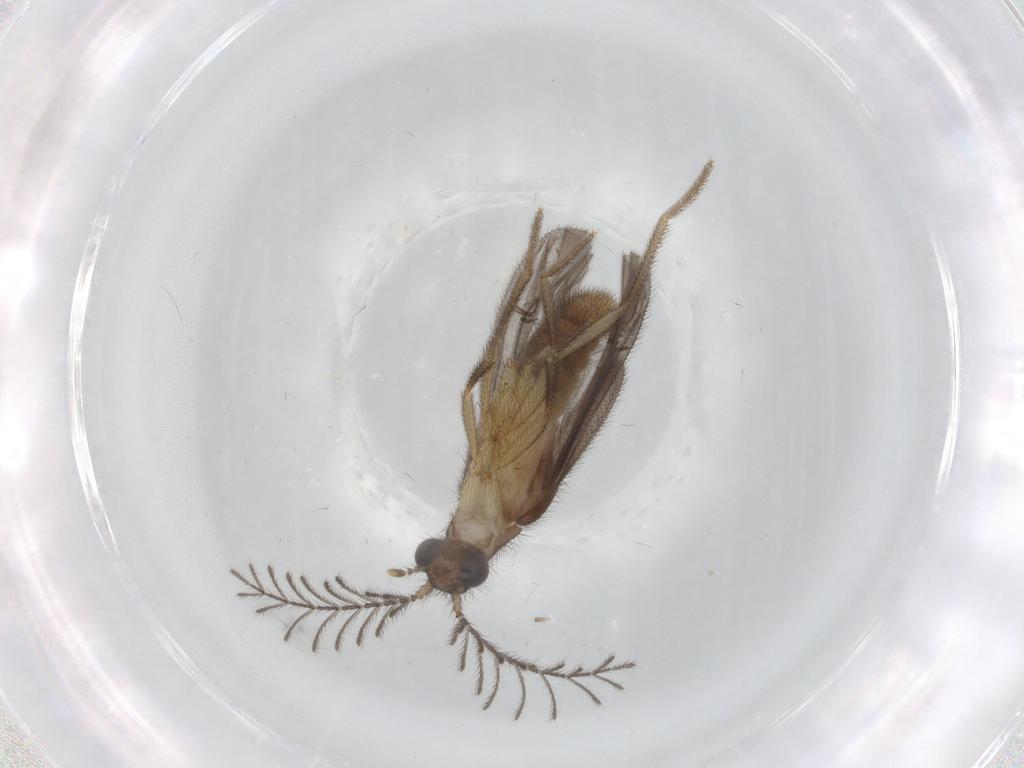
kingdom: Animalia
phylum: Arthropoda
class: Insecta
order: Coleoptera
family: Phengodidae
